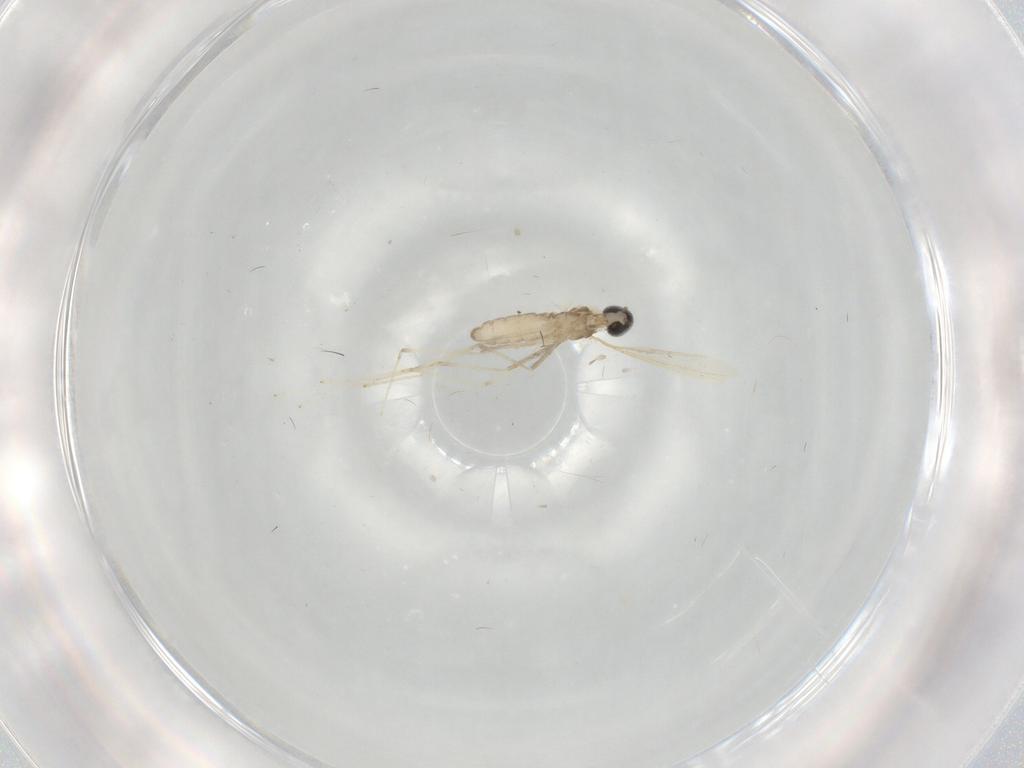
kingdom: Animalia
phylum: Arthropoda
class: Insecta
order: Diptera
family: Cecidomyiidae
